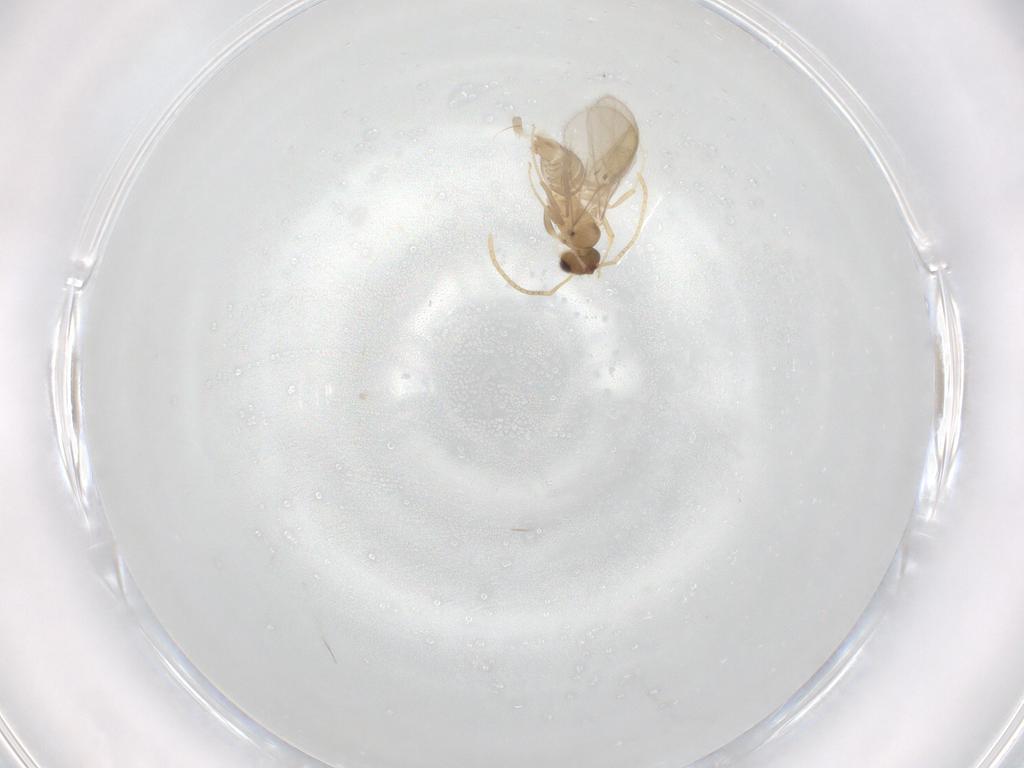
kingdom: Animalia
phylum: Arthropoda
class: Insecta
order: Hymenoptera
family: Formicidae
